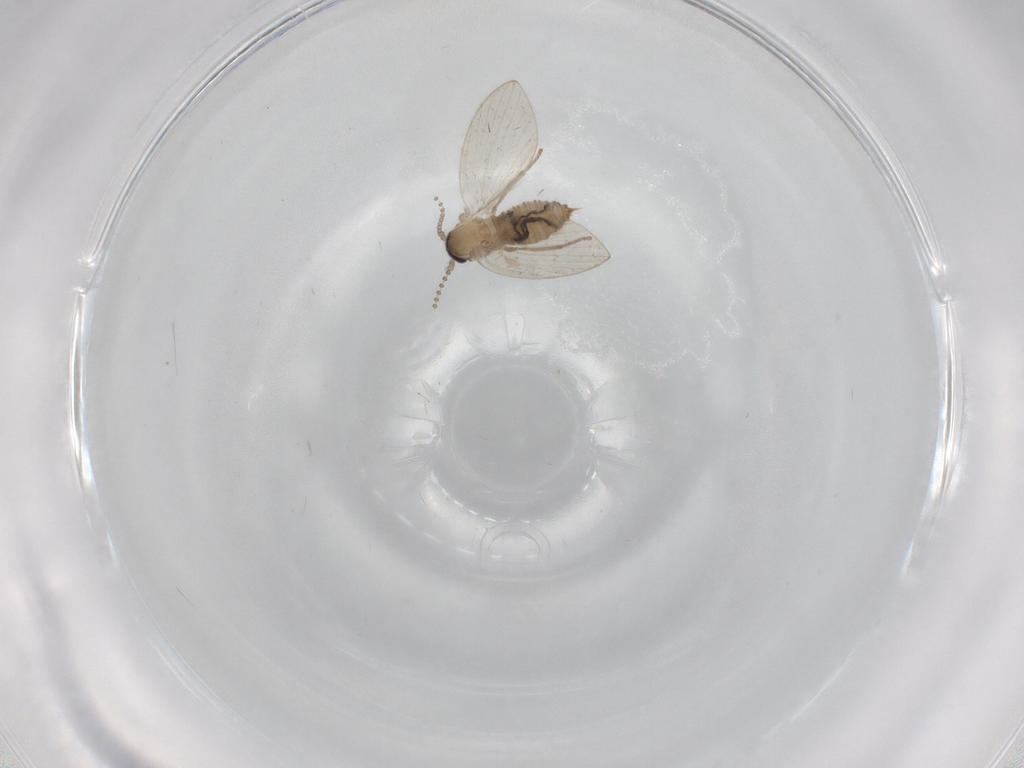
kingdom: Animalia
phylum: Arthropoda
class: Insecta
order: Diptera
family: Psychodidae
